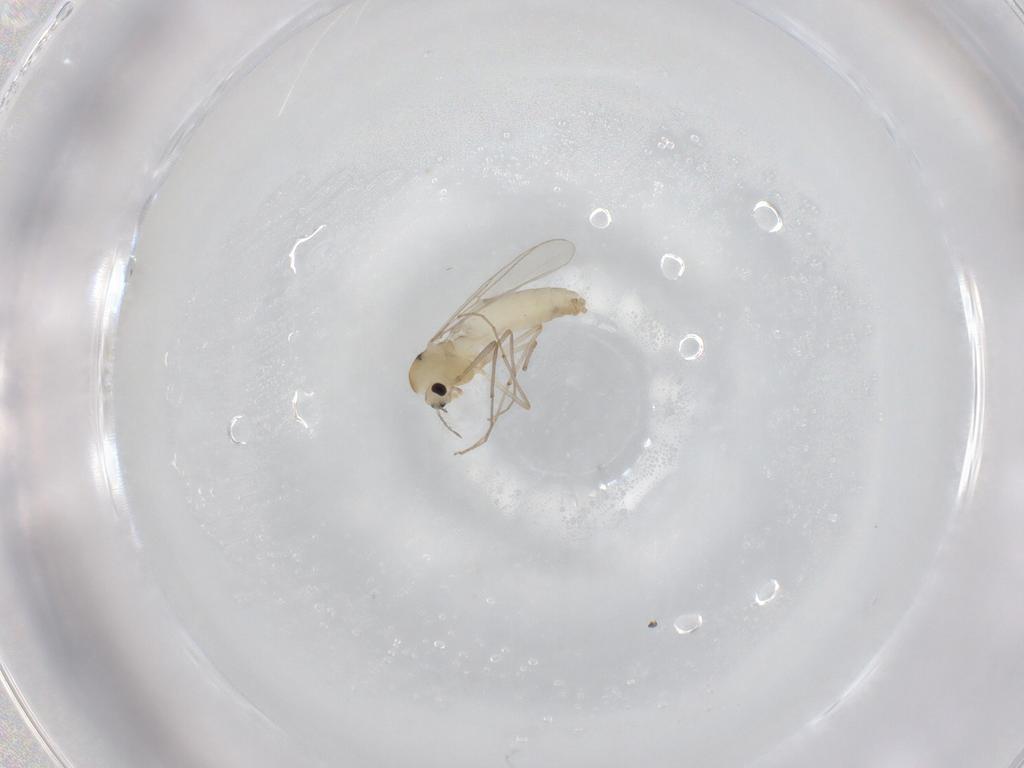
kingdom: Animalia
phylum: Arthropoda
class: Insecta
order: Diptera
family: Chironomidae
